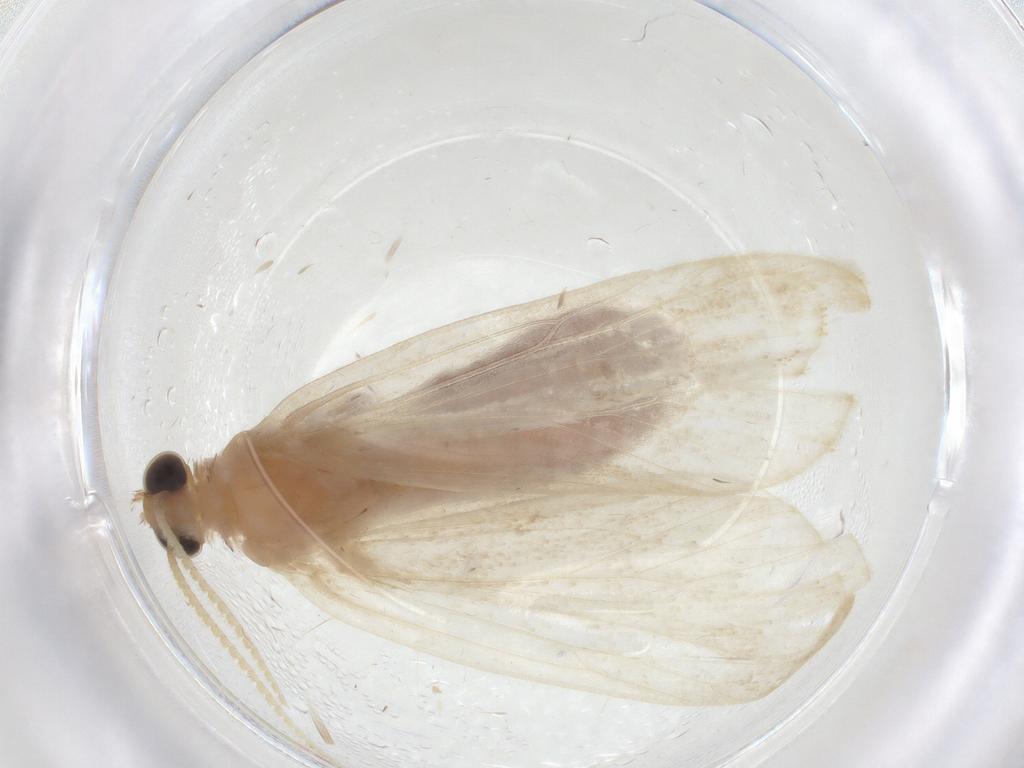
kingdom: Animalia
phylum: Arthropoda
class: Insecta
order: Lepidoptera
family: Crambidae
